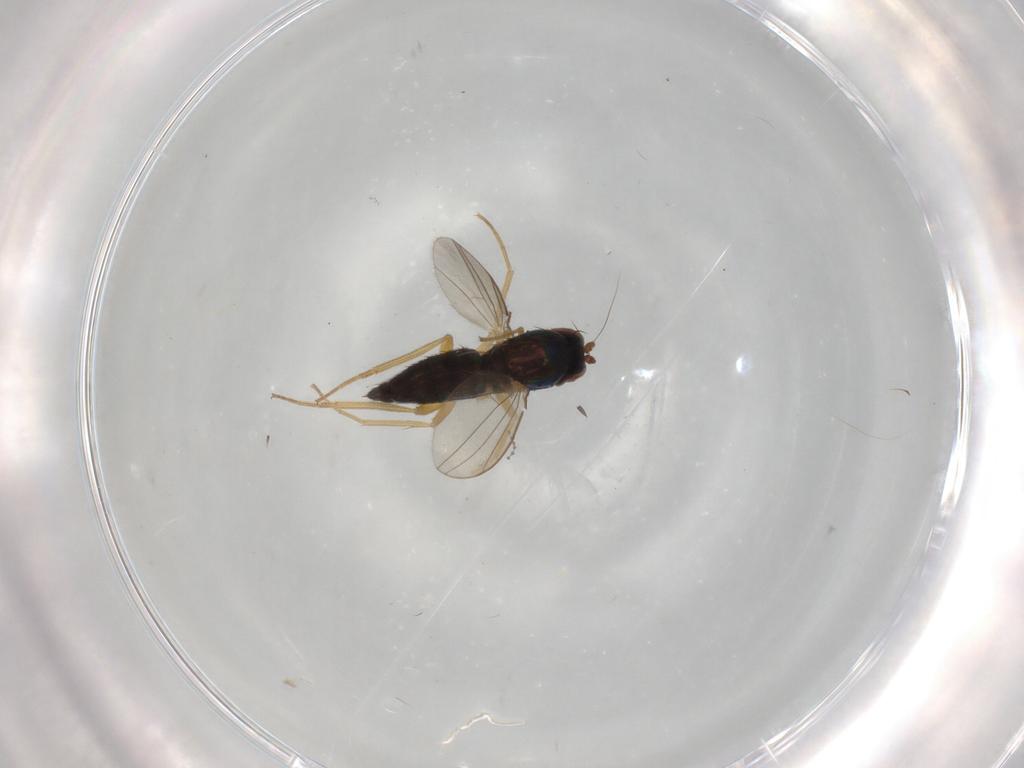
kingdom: Animalia
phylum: Arthropoda
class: Insecta
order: Diptera
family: Dolichopodidae
